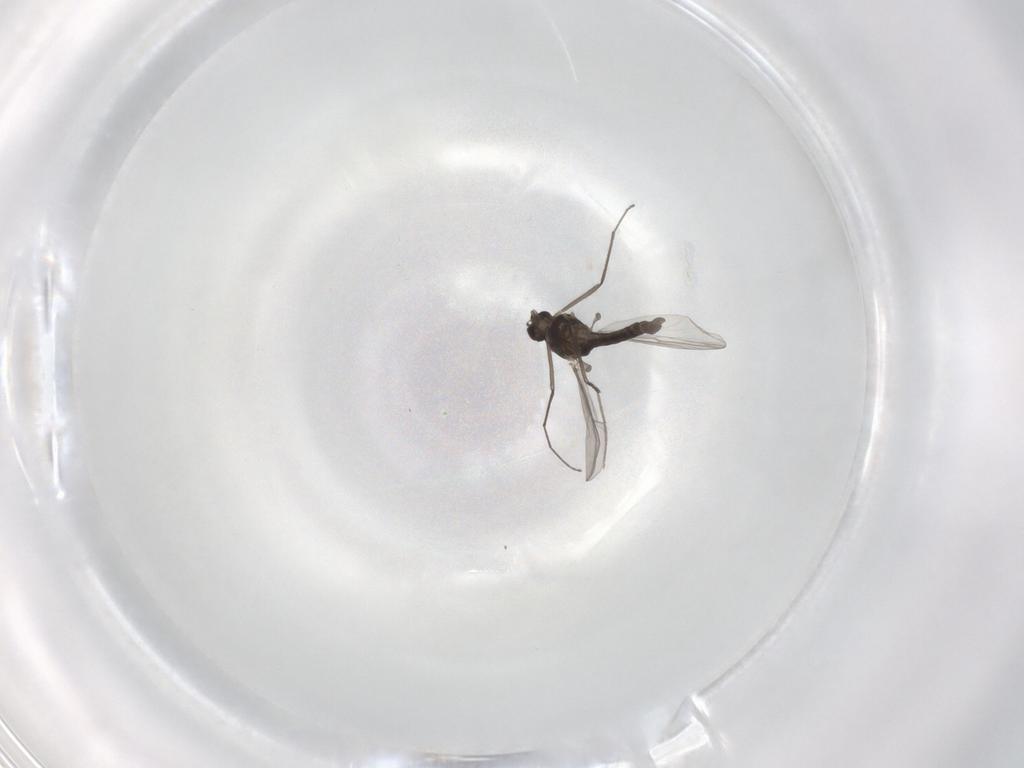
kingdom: Animalia
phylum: Arthropoda
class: Insecta
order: Diptera
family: Chironomidae
